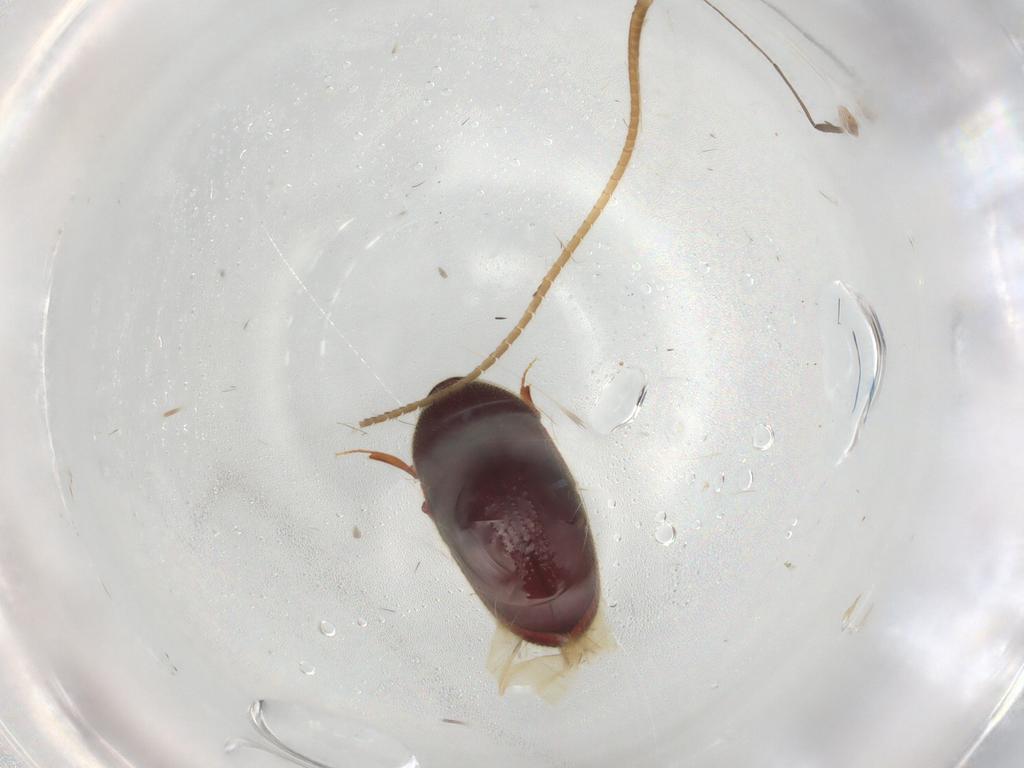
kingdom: Animalia
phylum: Arthropoda
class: Insecta
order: Coleoptera
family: Throscidae
